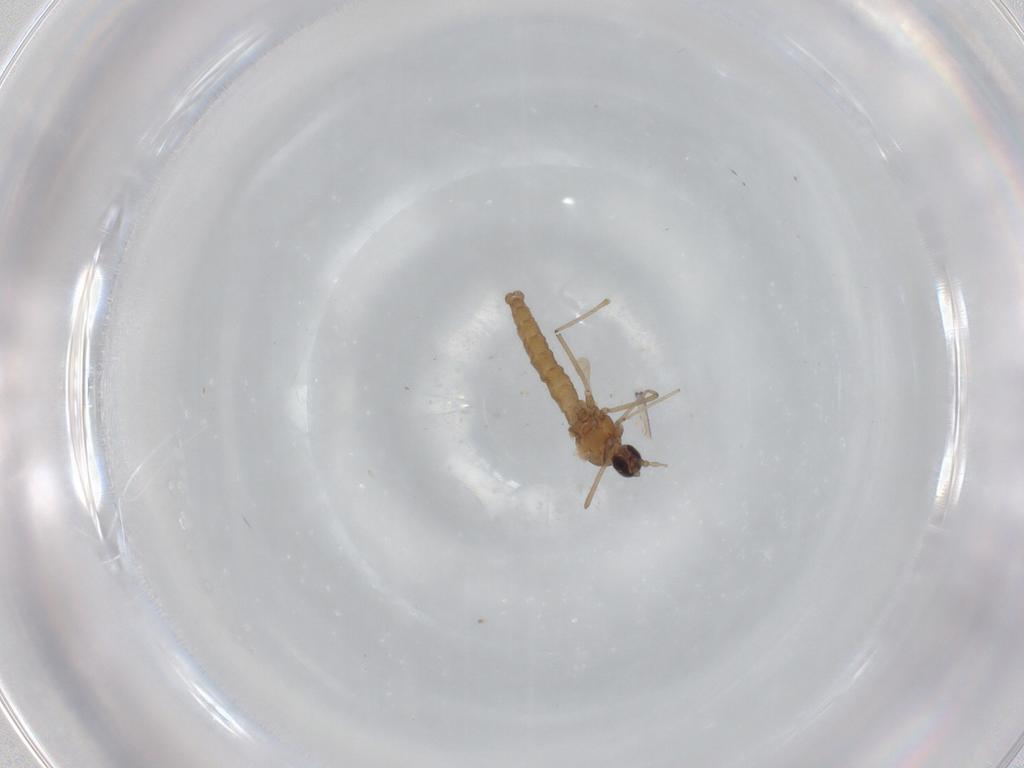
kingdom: Animalia
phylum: Arthropoda
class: Insecta
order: Diptera
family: Cecidomyiidae
